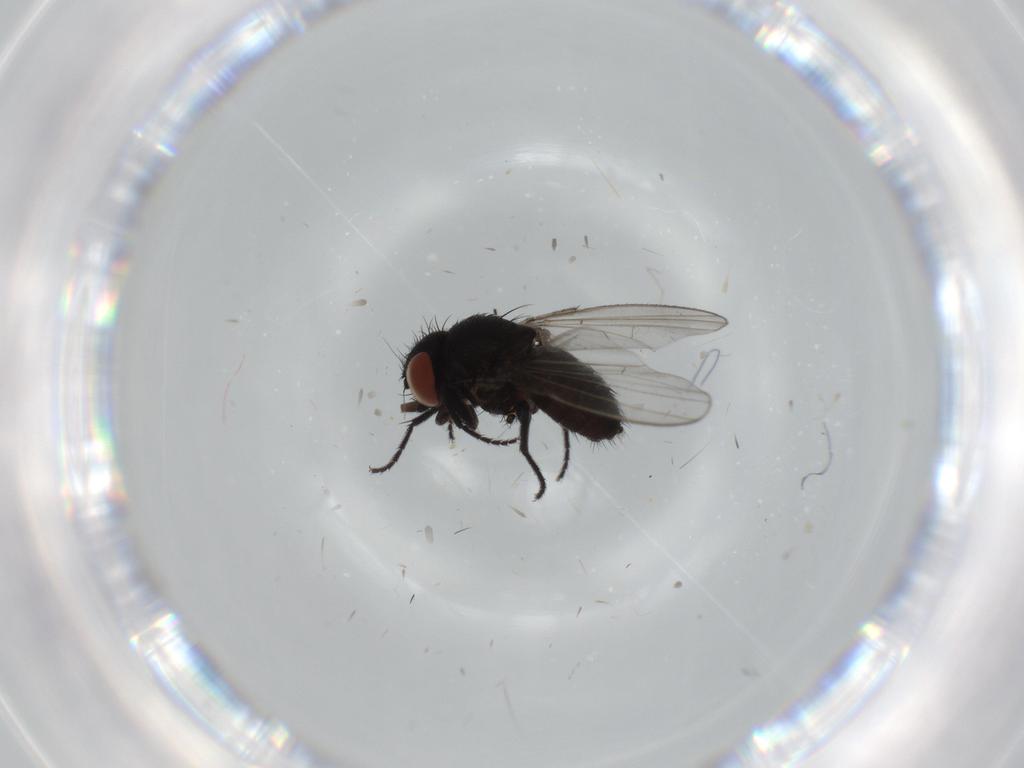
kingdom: Animalia
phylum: Arthropoda
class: Insecta
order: Diptera
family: Milichiidae
